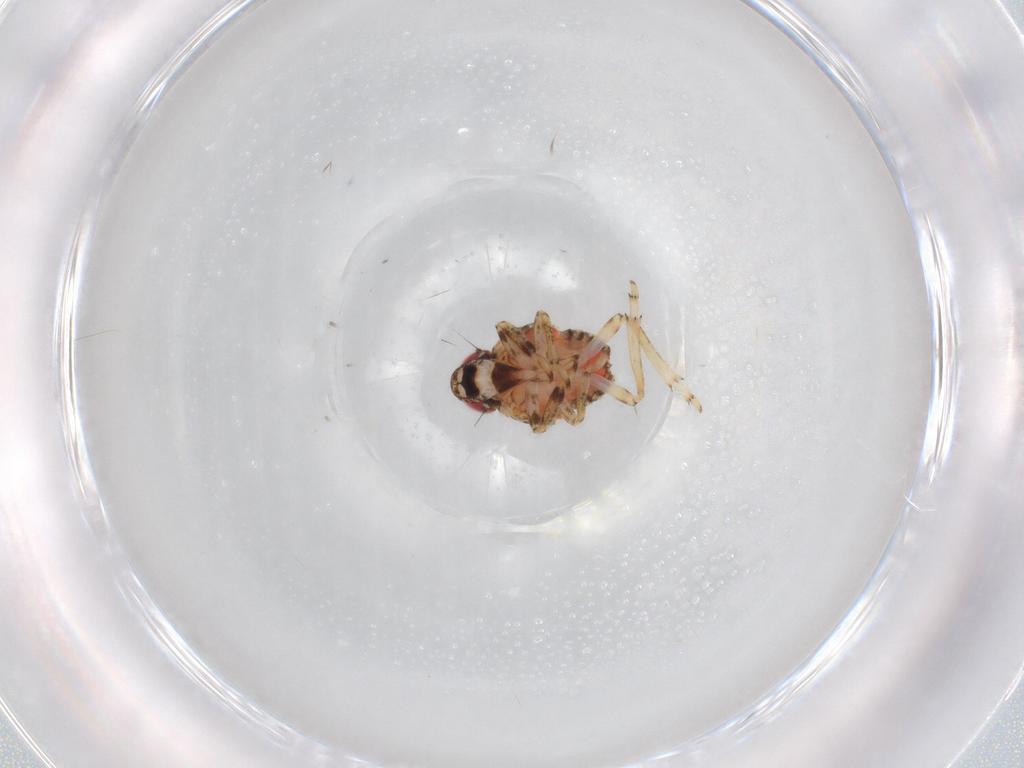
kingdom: Animalia
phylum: Arthropoda
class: Insecta
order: Hemiptera
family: Issidae
